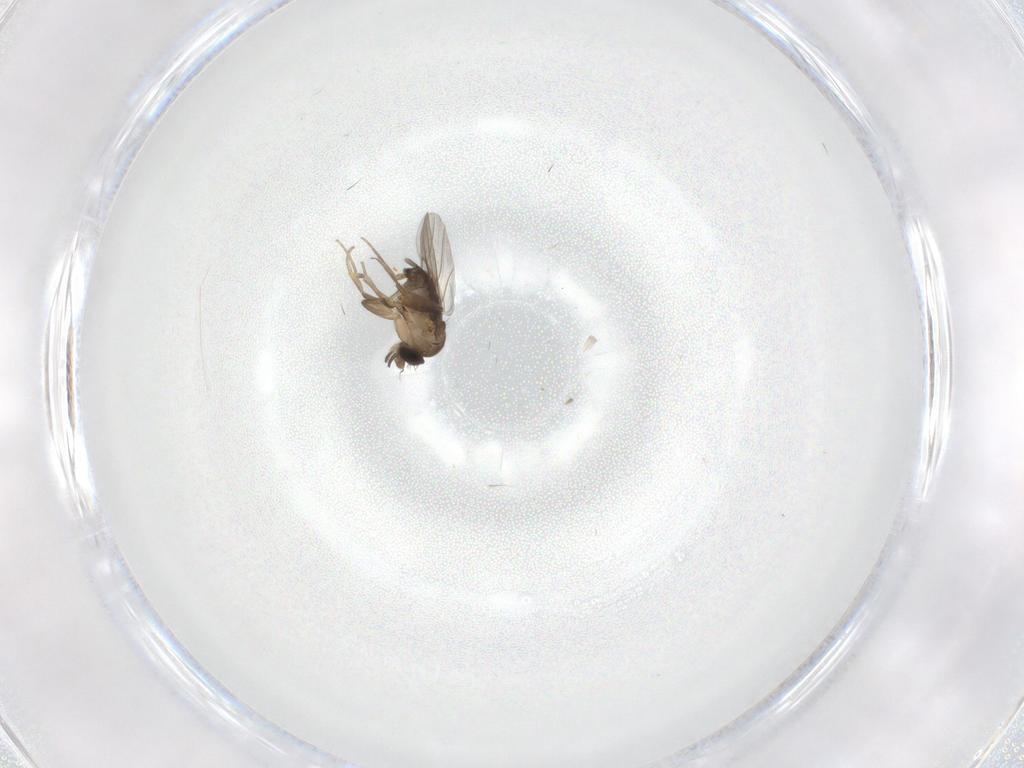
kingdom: Animalia
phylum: Arthropoda
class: Insecta
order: Diptera
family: Cecidomyiidae
